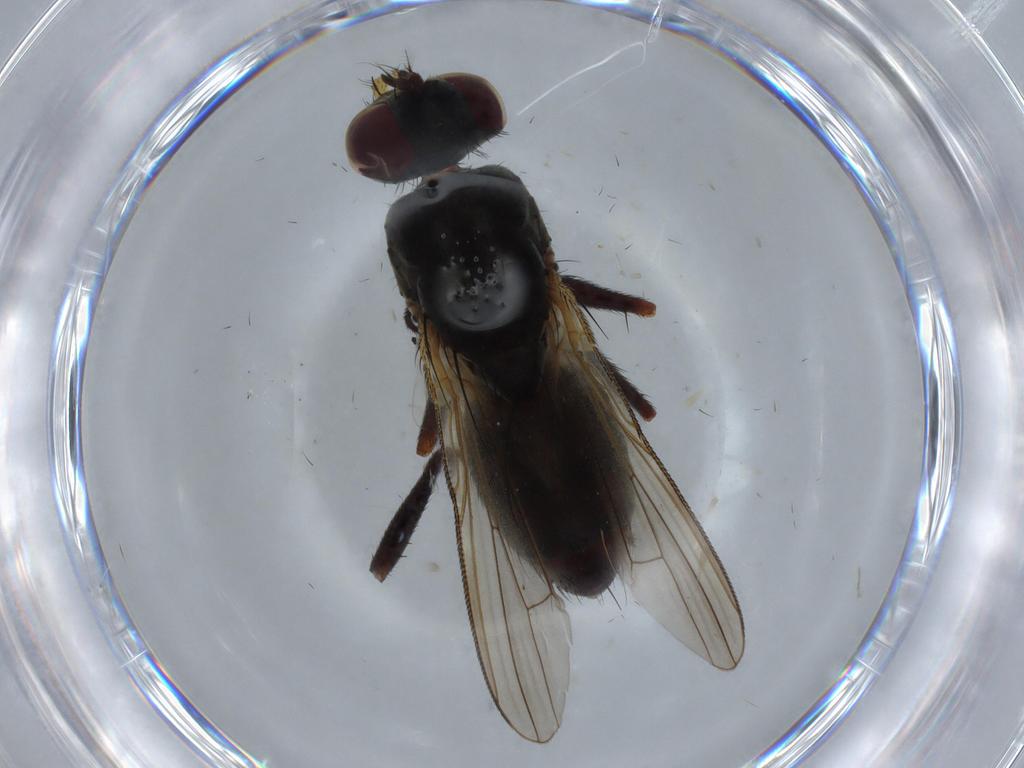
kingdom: Animalia
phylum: Arthropoda
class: Insecta
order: Diptera
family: Muscidae
